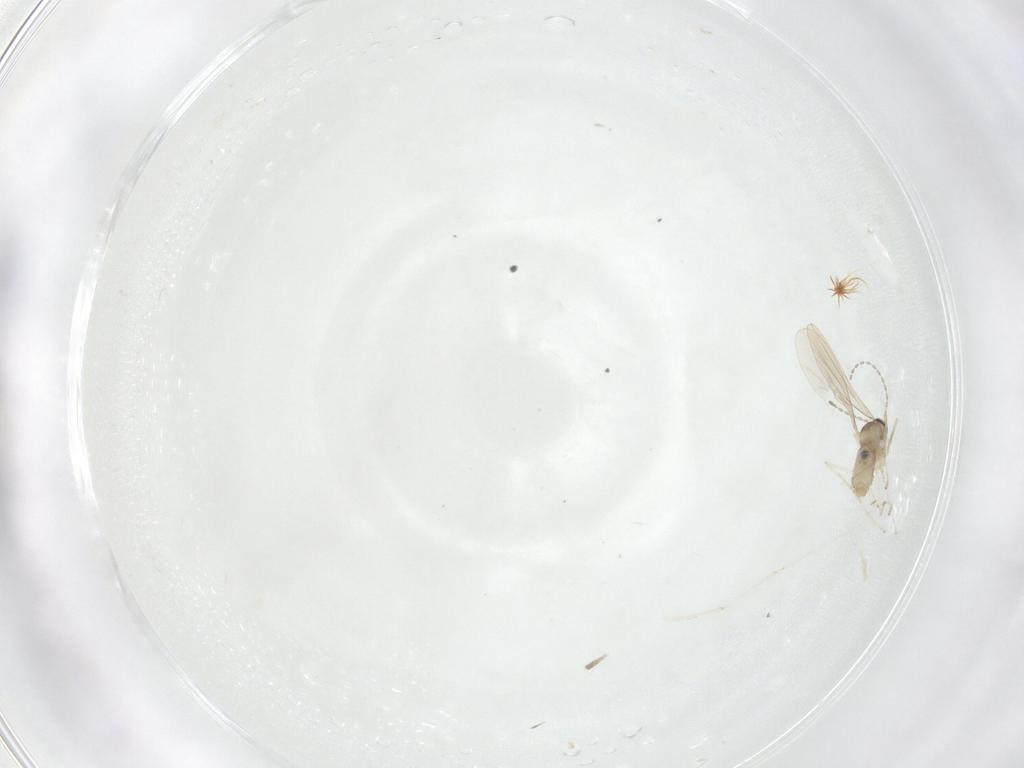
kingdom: Animalia
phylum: Arthropoda
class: Insecta
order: Diptera
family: Cecidomyiidae
